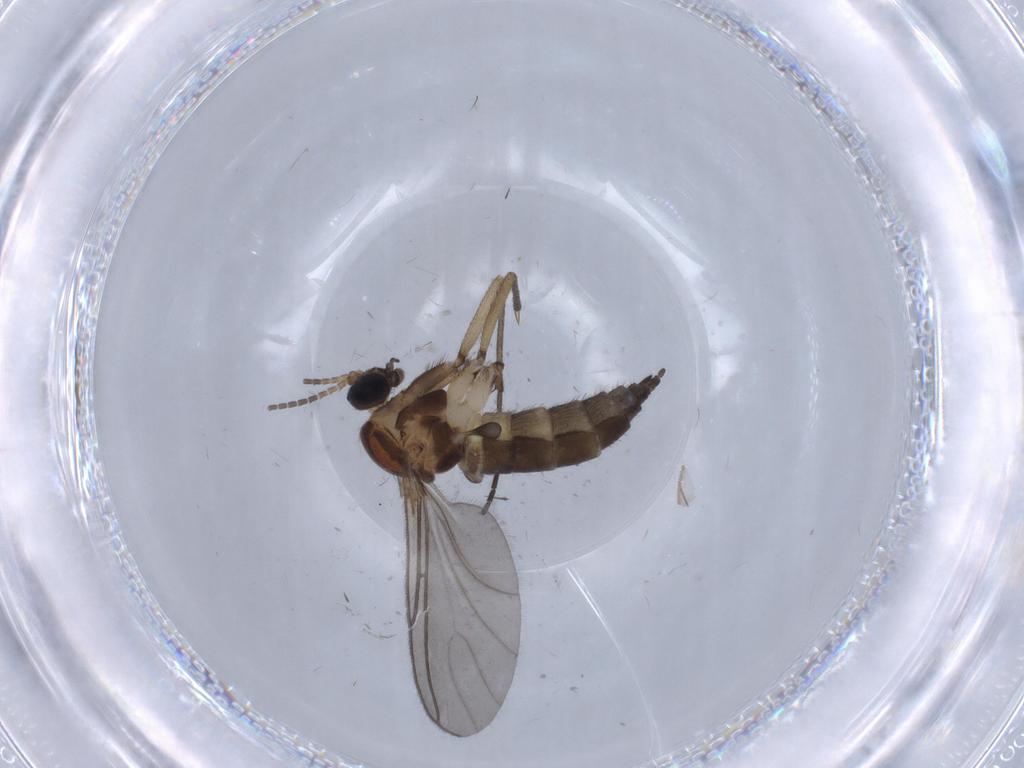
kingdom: Animalia
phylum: Arthropoda
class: Insecta
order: Diptera
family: Sciaridae
